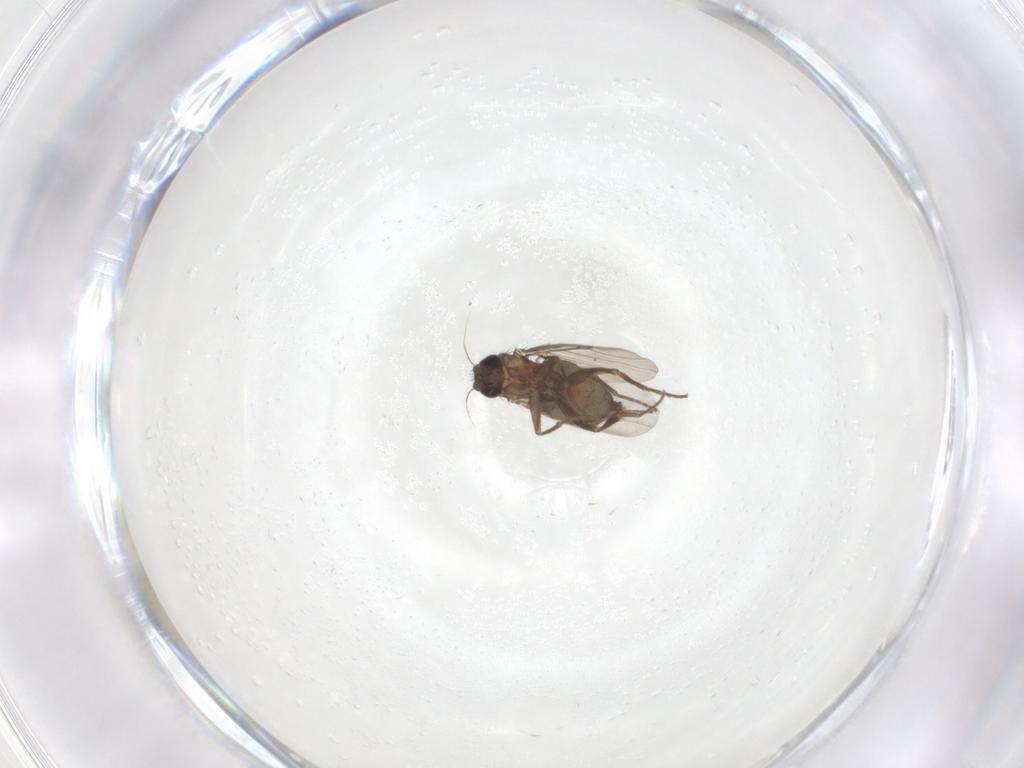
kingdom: Animalia
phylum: Arthropoda
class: Insecta
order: Diptera
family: Phoridae
